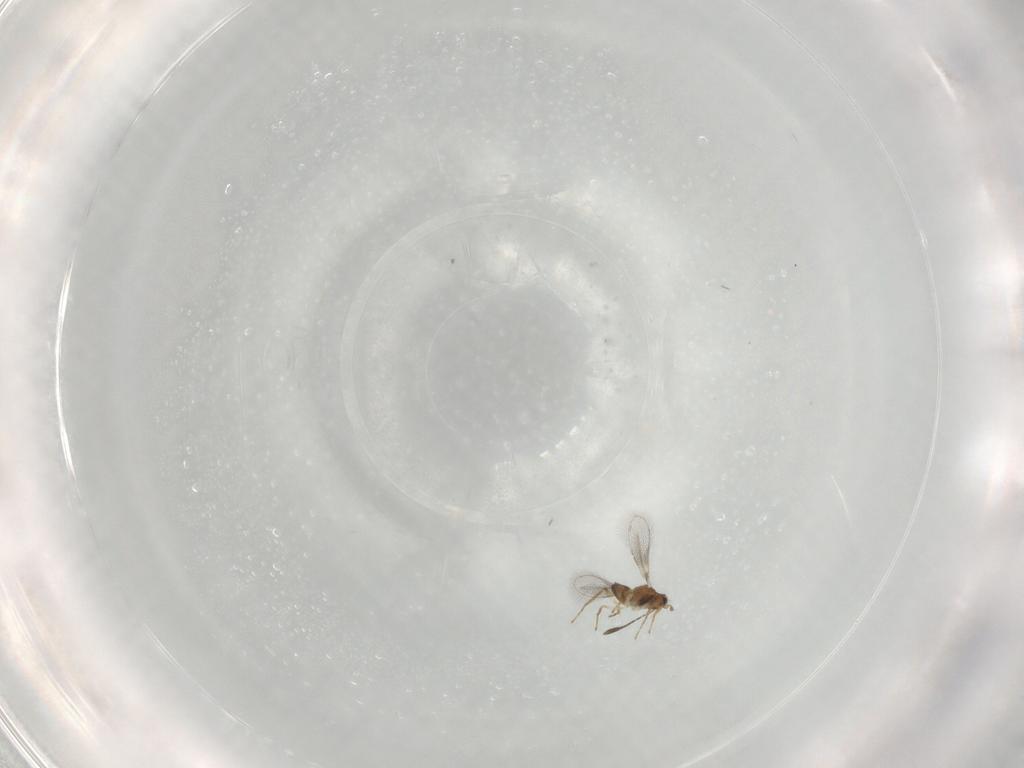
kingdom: Animalia
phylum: Arthropoda
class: Insecta
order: Hymenoptera
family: Mymaridae
